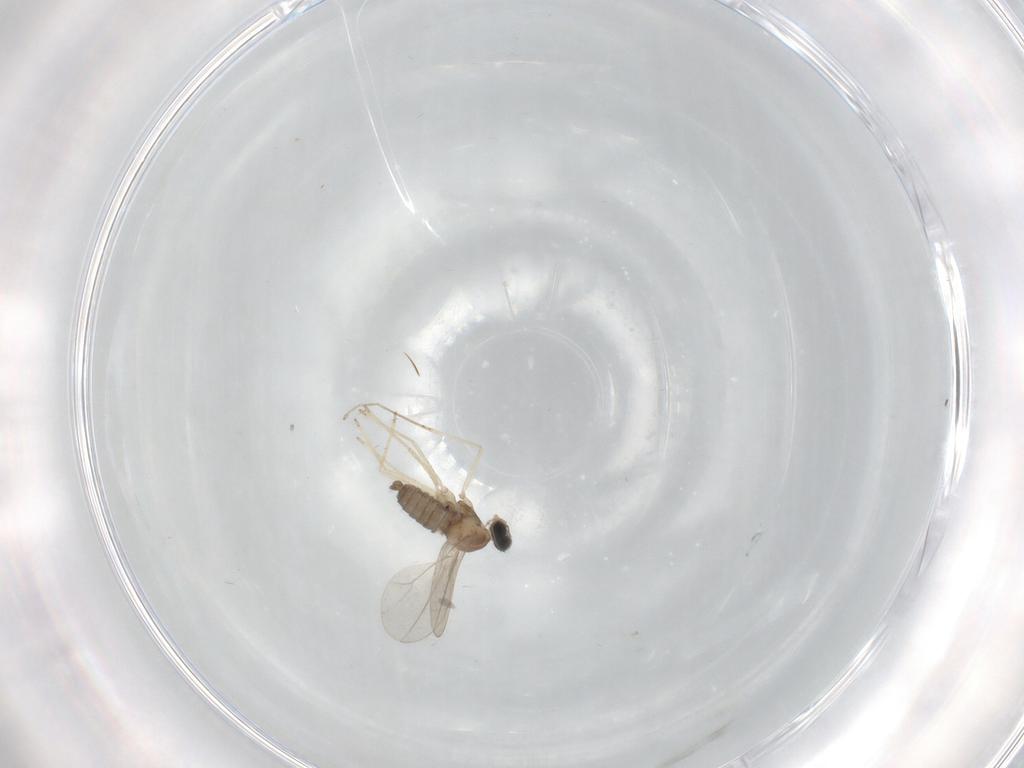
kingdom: Animalia
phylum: Arthropoda
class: Insecta
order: Diptera
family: Cecidomyiidae
